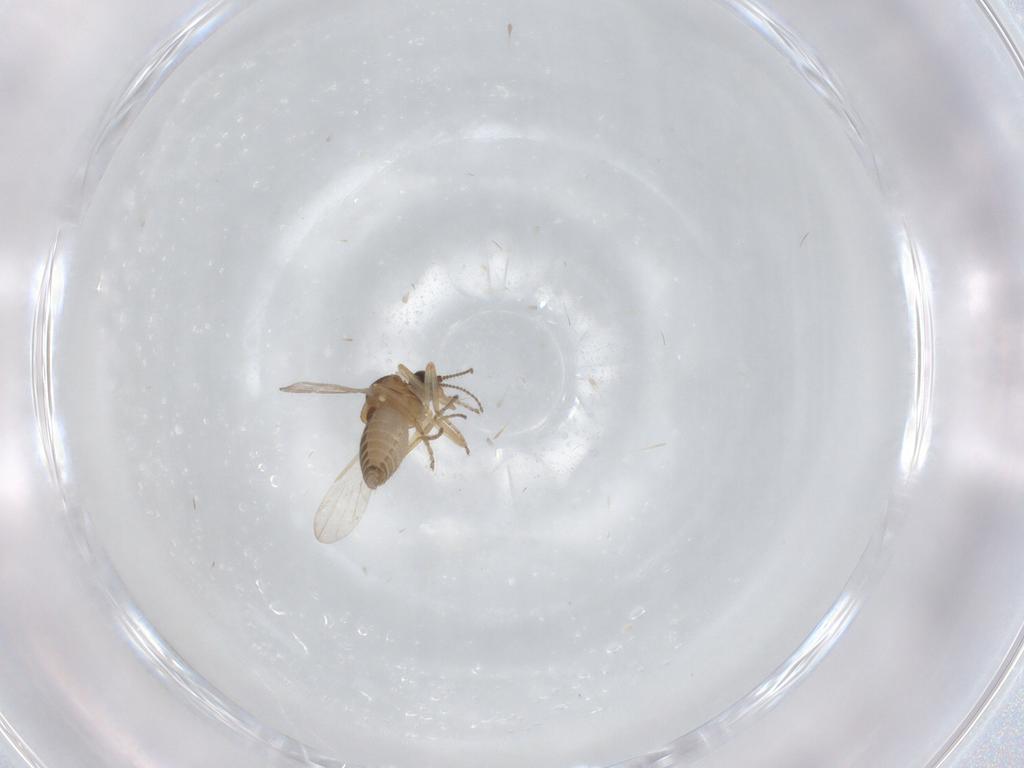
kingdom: Animalia
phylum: Arthropoda
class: Insecta
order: Diptera
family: Ceratopogonidae
